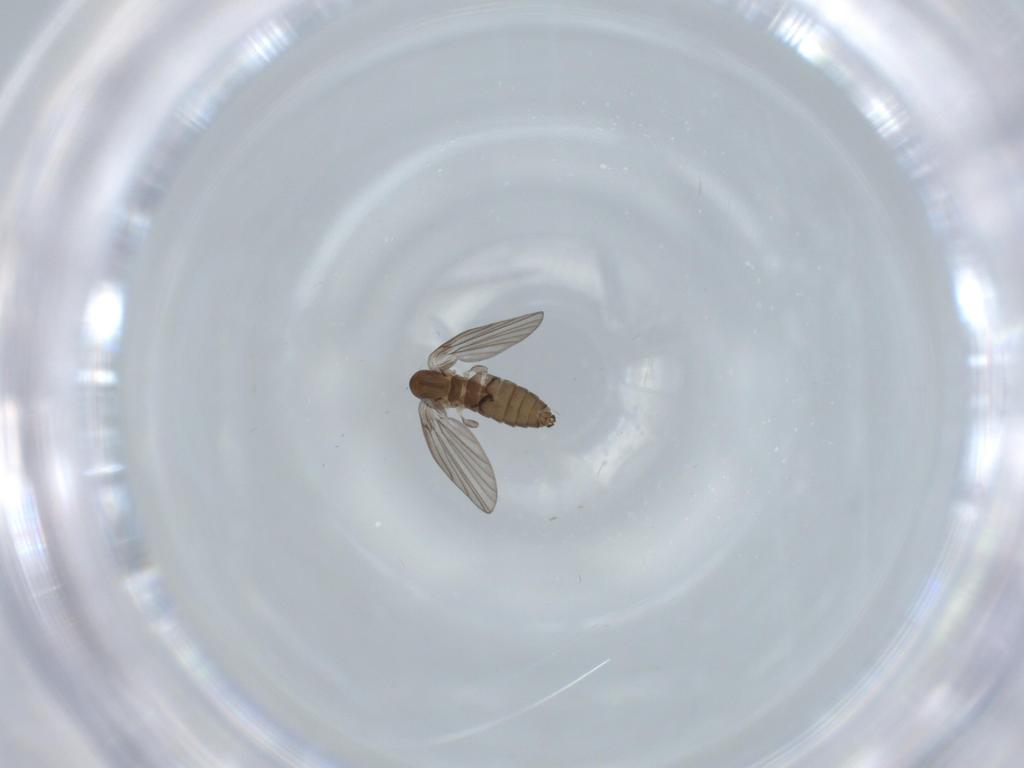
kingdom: Animalia
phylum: Arthropoda
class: Insecta
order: Diptera
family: Psychodidae
